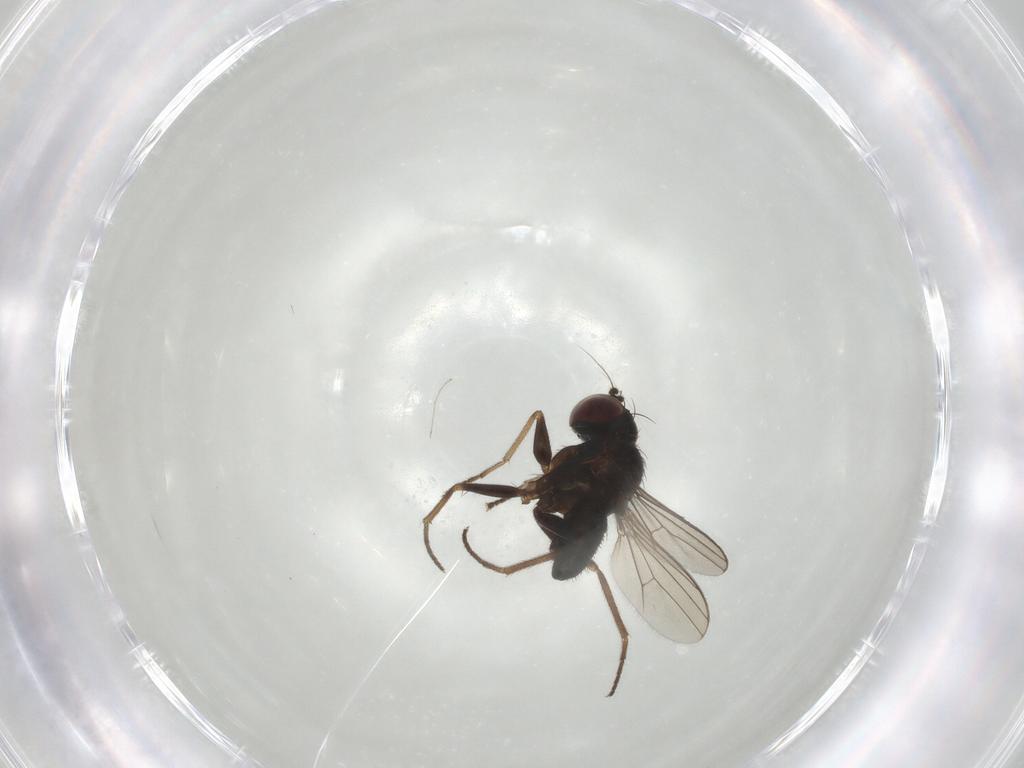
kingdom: Animalia
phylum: Arthropoda
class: Insecta
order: Diptera
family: Dolichopodidae
